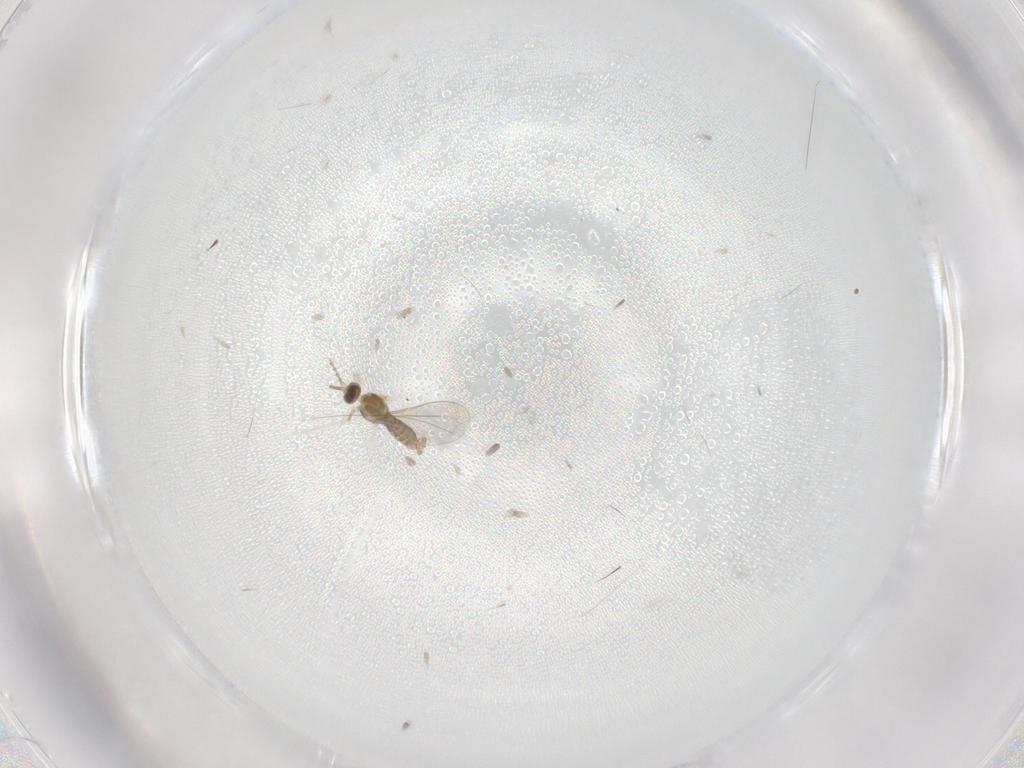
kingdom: Animalia
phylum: Arthropoda
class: Insecta
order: Diptera
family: Cecidomyiidae
